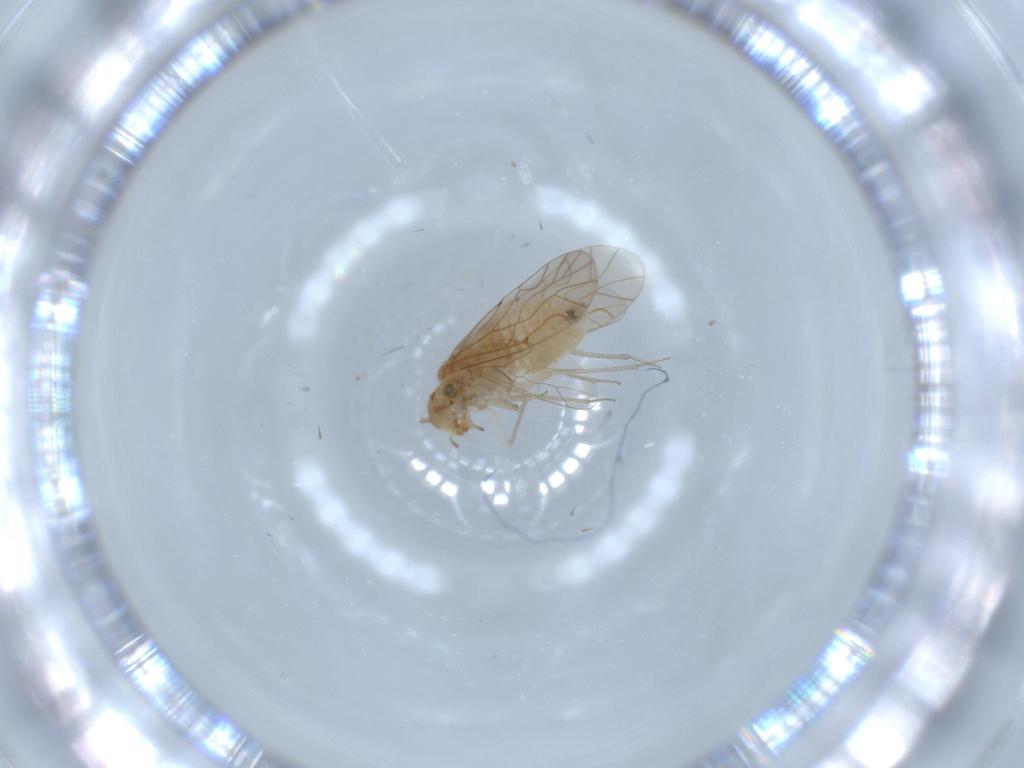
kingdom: Animalia
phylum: Arthropoda
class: Insecta
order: Psocodea
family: Lachesillidae
